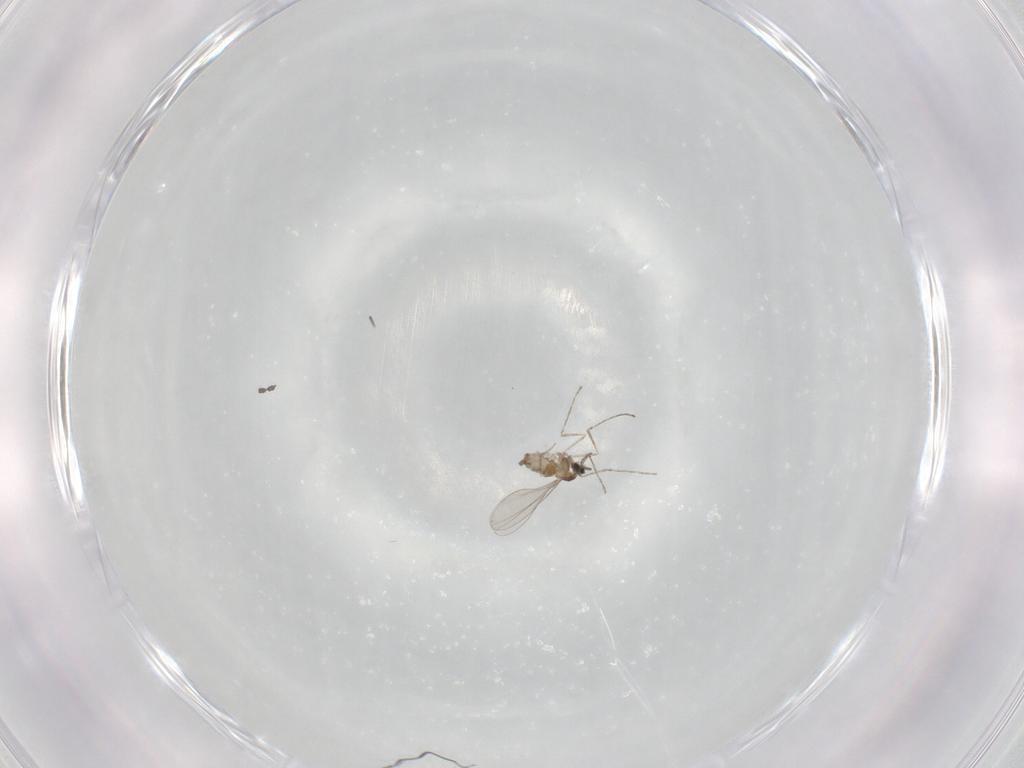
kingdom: Animalia
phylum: Arthropoda
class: Insecta
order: Diptera
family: Cecidomyiidae
